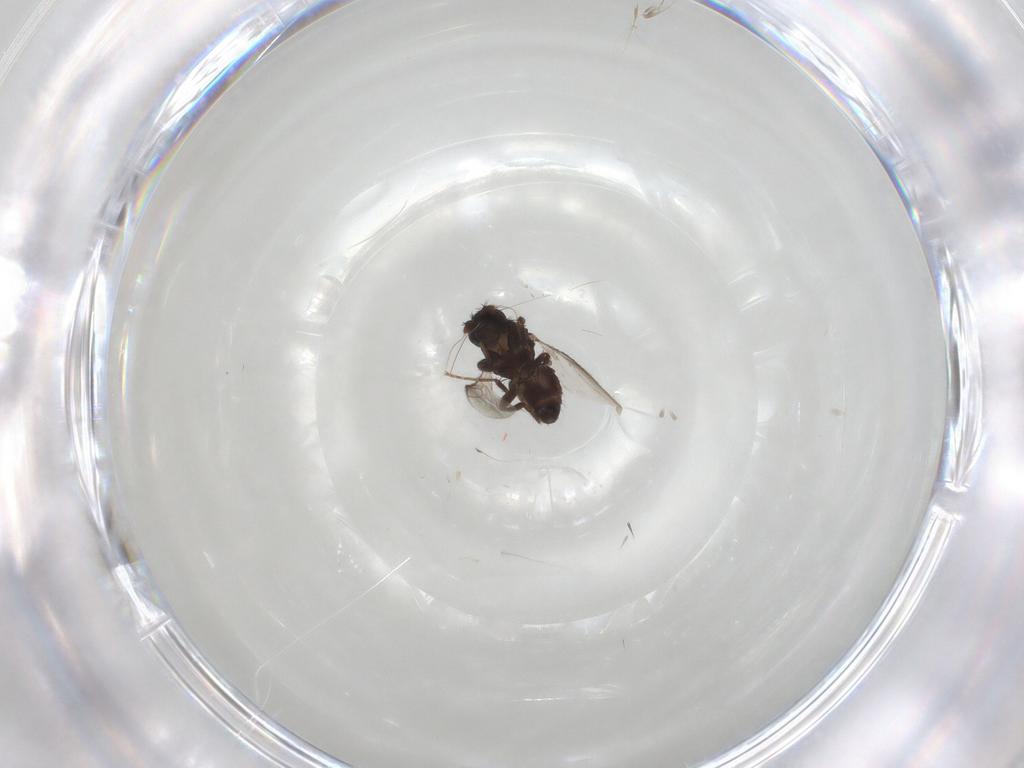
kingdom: Animalia
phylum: Arthropoda
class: Insecta
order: Diptera
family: Sphaeroceridae
